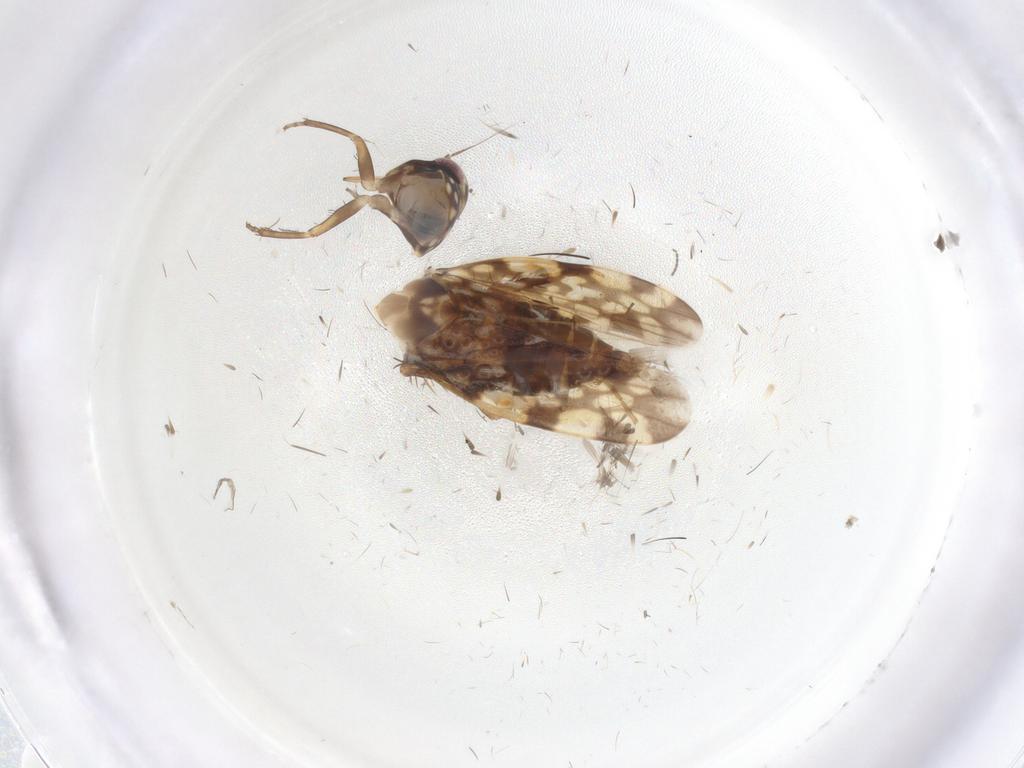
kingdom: Animalia
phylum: Arthropoda
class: Insecta
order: Hemiptera
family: Cicadellidae
